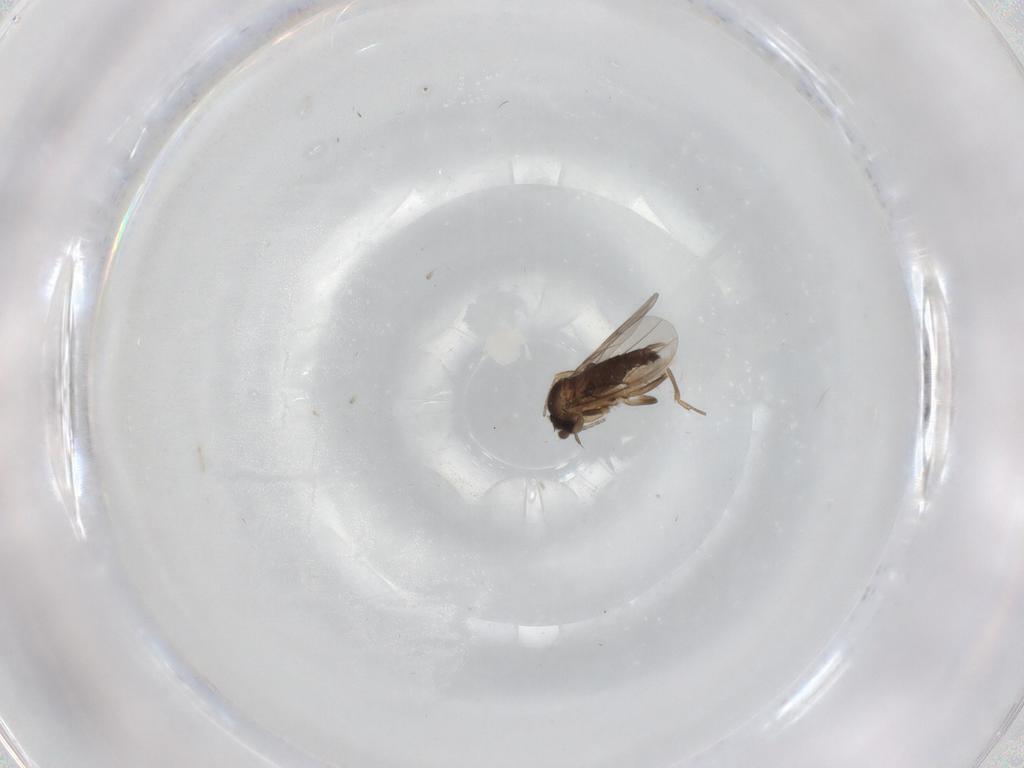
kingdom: Animalia
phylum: Arthropoda
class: Insecta
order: Diptera
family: Phoridae
